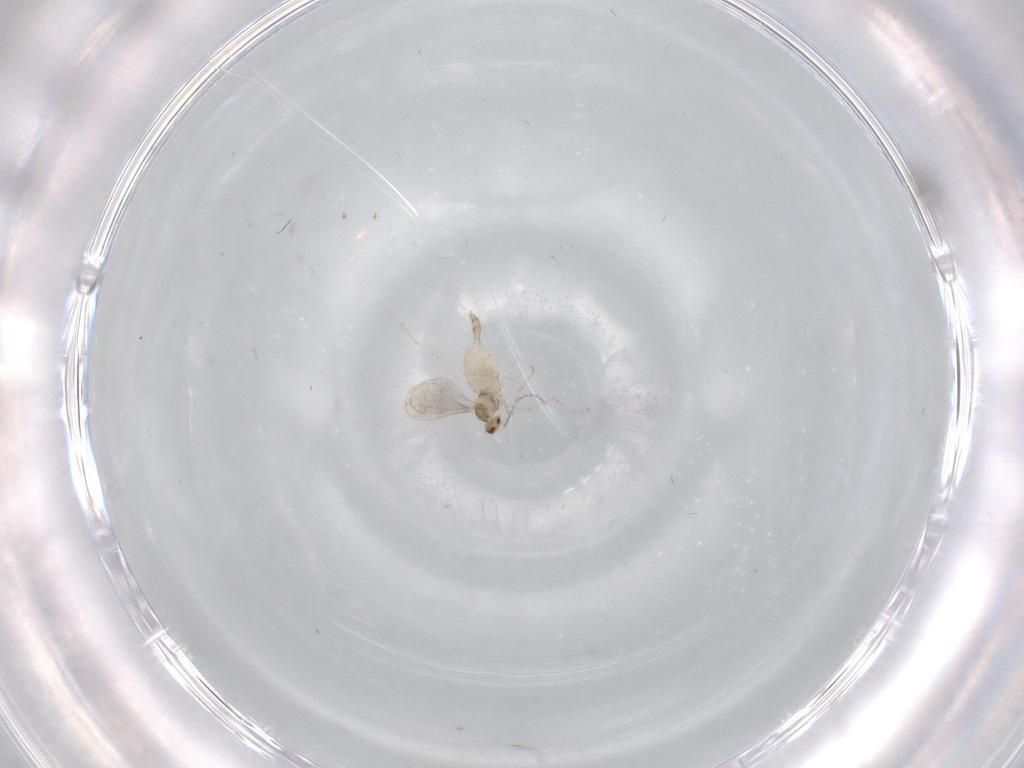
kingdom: Animalia
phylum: Arthropoda
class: Insecta
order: Diptera
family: Cecidomyiidae
